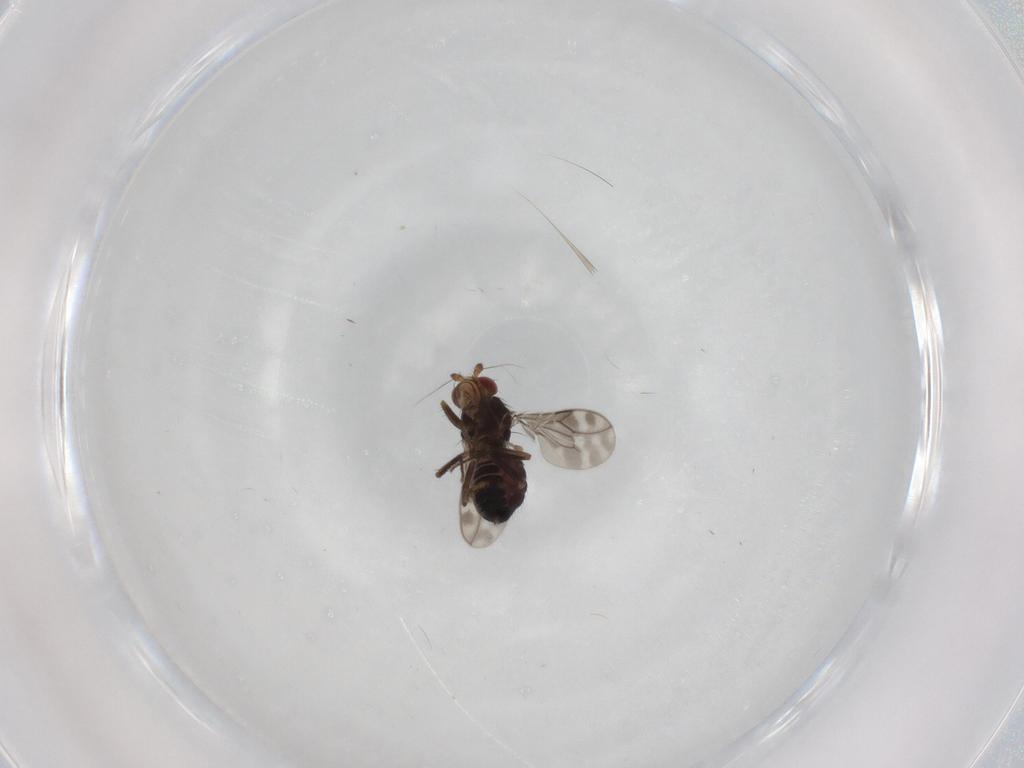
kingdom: Animalia
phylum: Arthropoda
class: Insecta
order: Diptera
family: Sphaeroceridae
